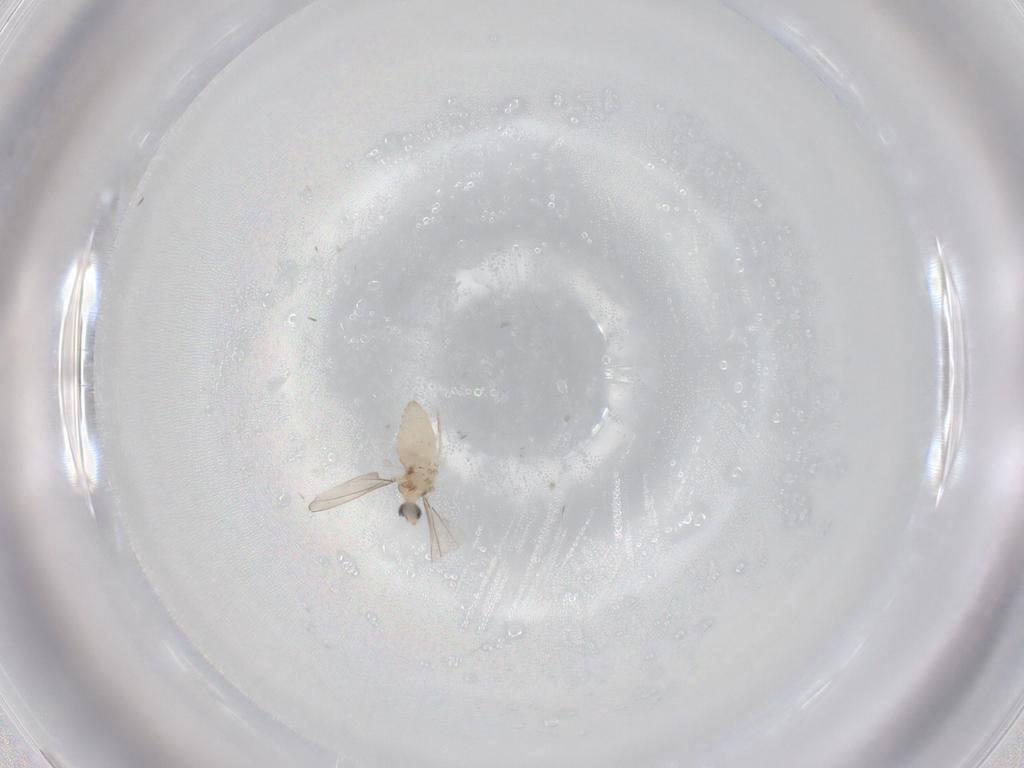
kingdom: Animalia
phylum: Arthropoda
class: Insecta
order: Diptera
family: Cecidomyiidae
